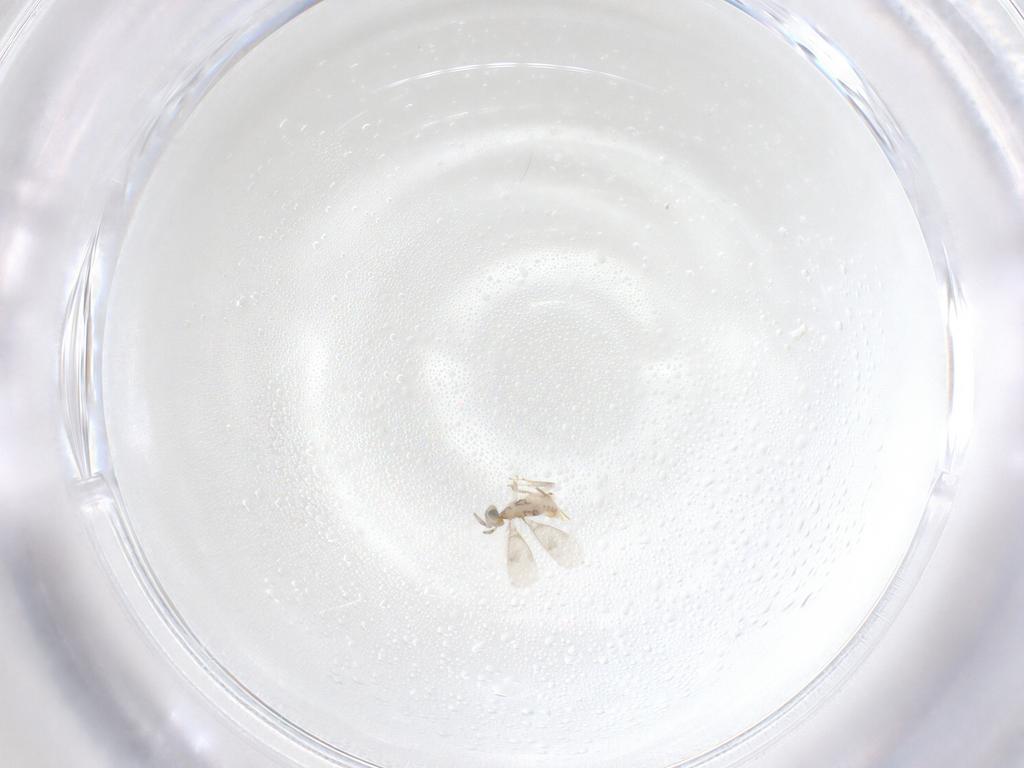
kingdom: Animalia
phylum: Arthropoda
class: Insecta
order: Hymenoptera
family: Aphelinidae
